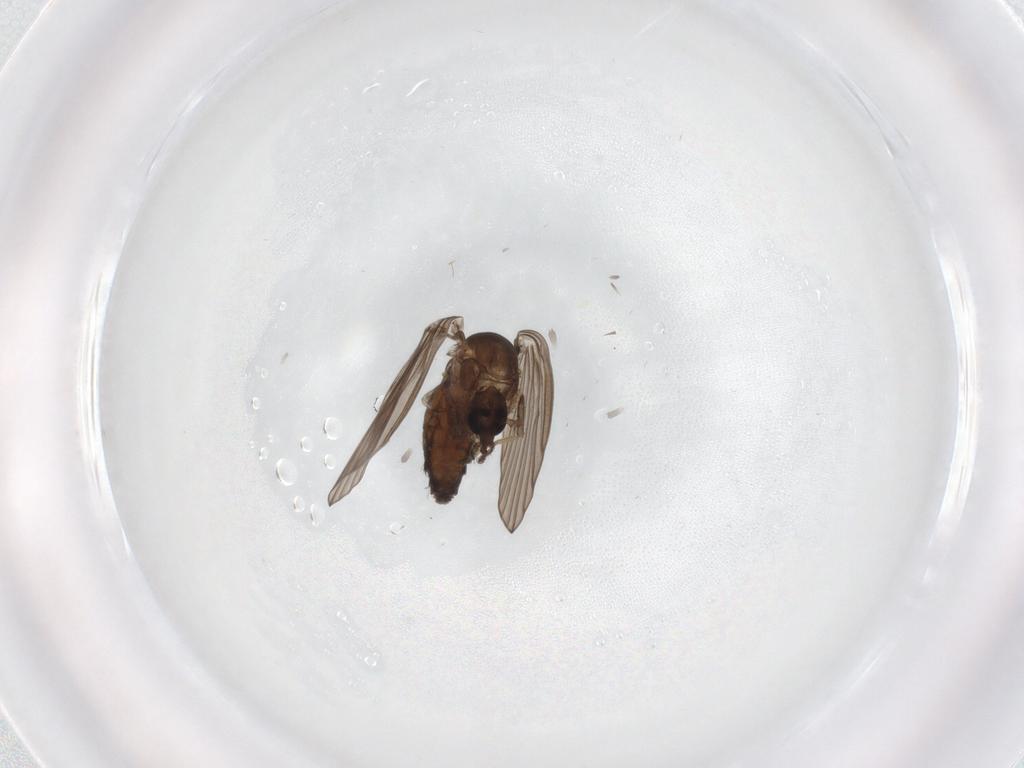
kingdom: Animalia
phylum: Arthropoda
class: Insecta
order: Diptera
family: Psychodidae
